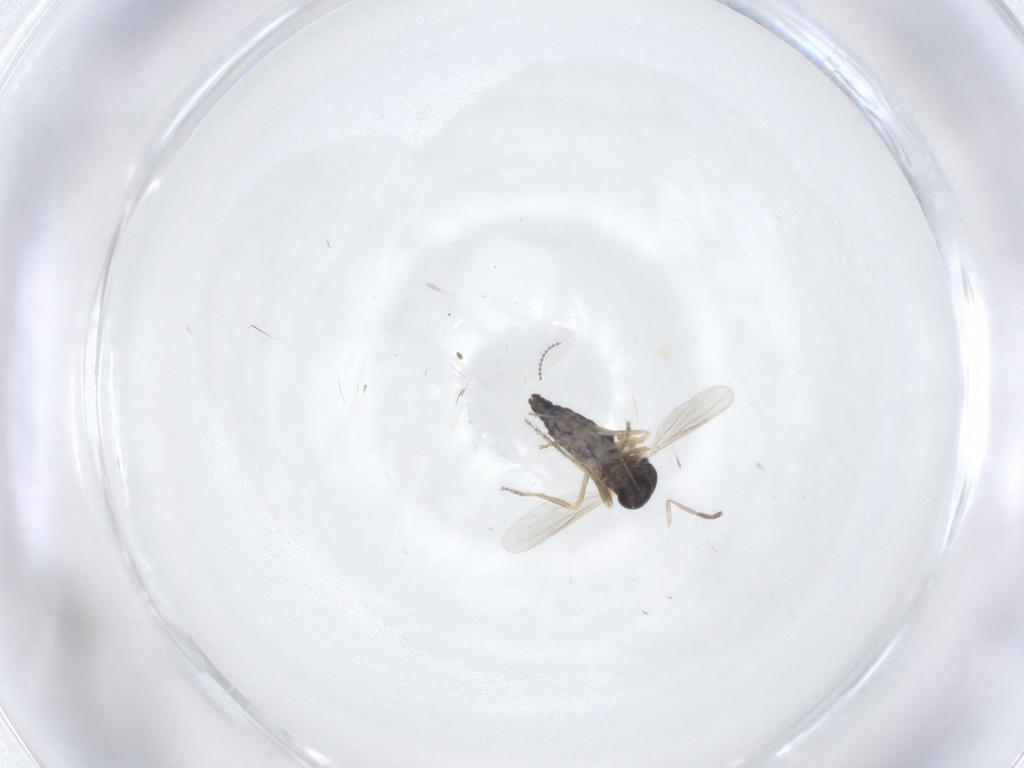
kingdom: Animalia
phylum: Arthropoda
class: Insecta
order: Diptera
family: Ceratopogonidae
